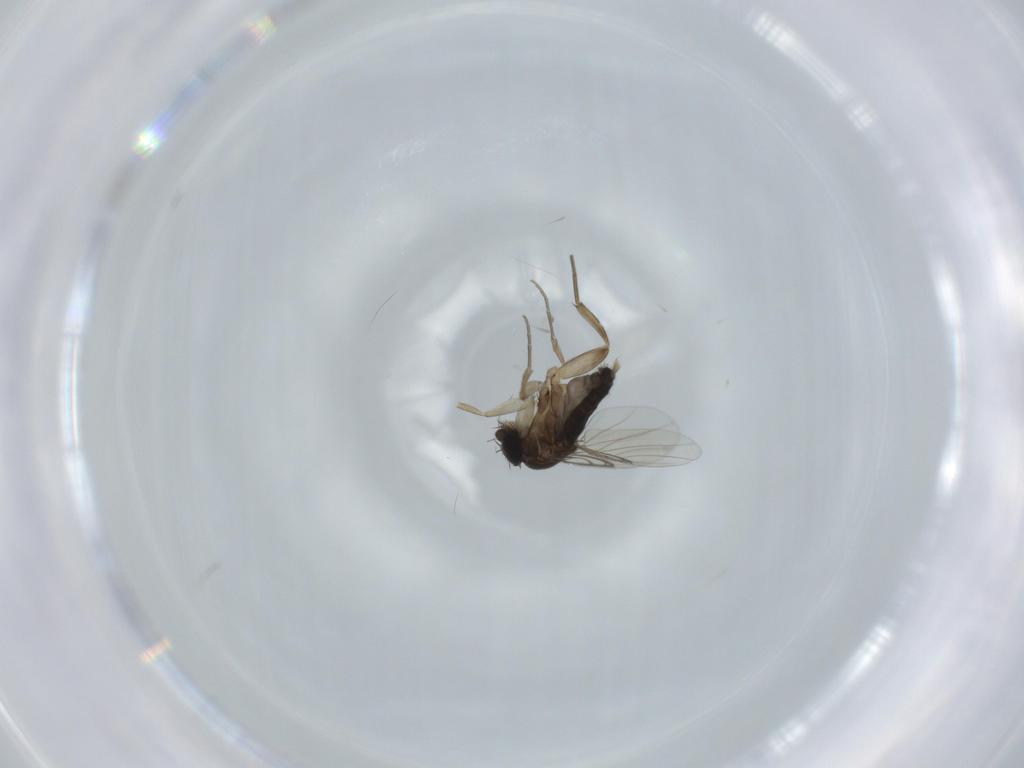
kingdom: Animalia
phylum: Arthropoda
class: Insecta
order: Diptera
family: Phoridae
